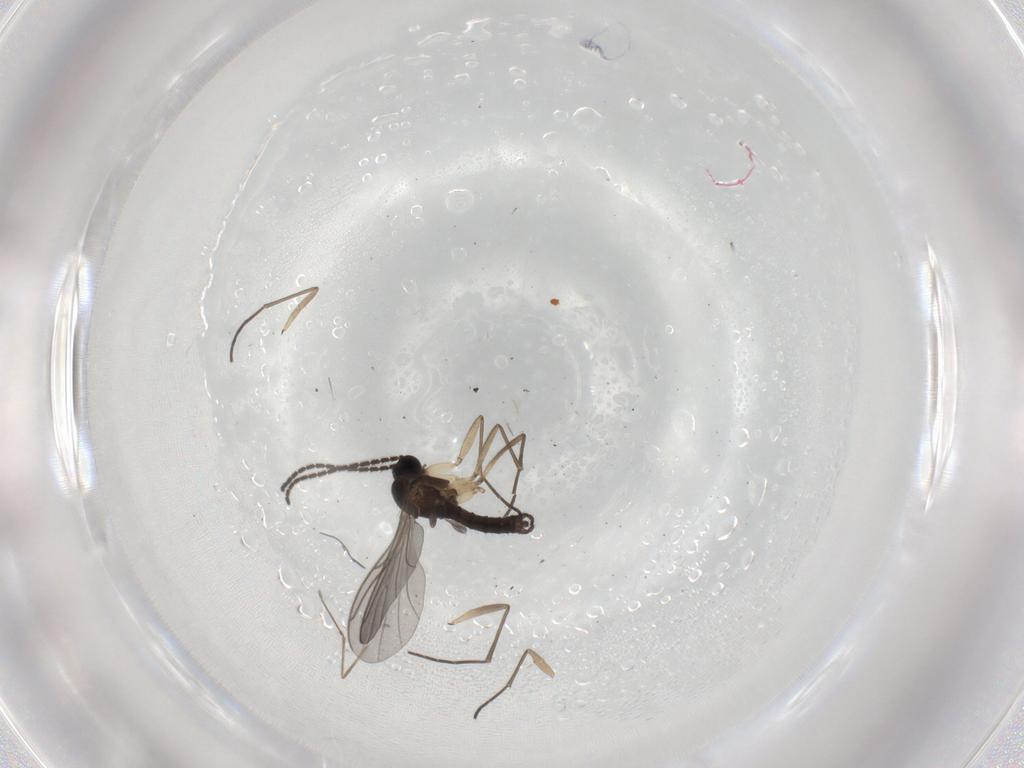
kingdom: Animalia
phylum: Arthropoda
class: Insecta
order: Diptera
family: Sciaridae
